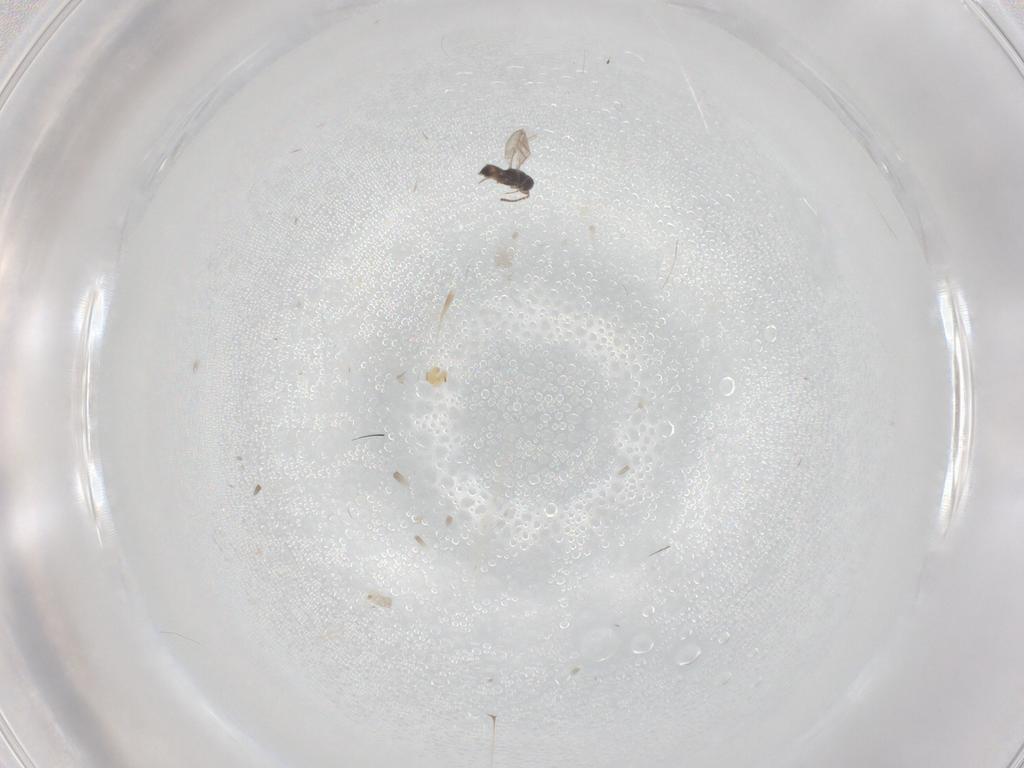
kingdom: Animalia
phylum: Arthropoda
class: Insecta
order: Hymenoptera
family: Scelionidae
